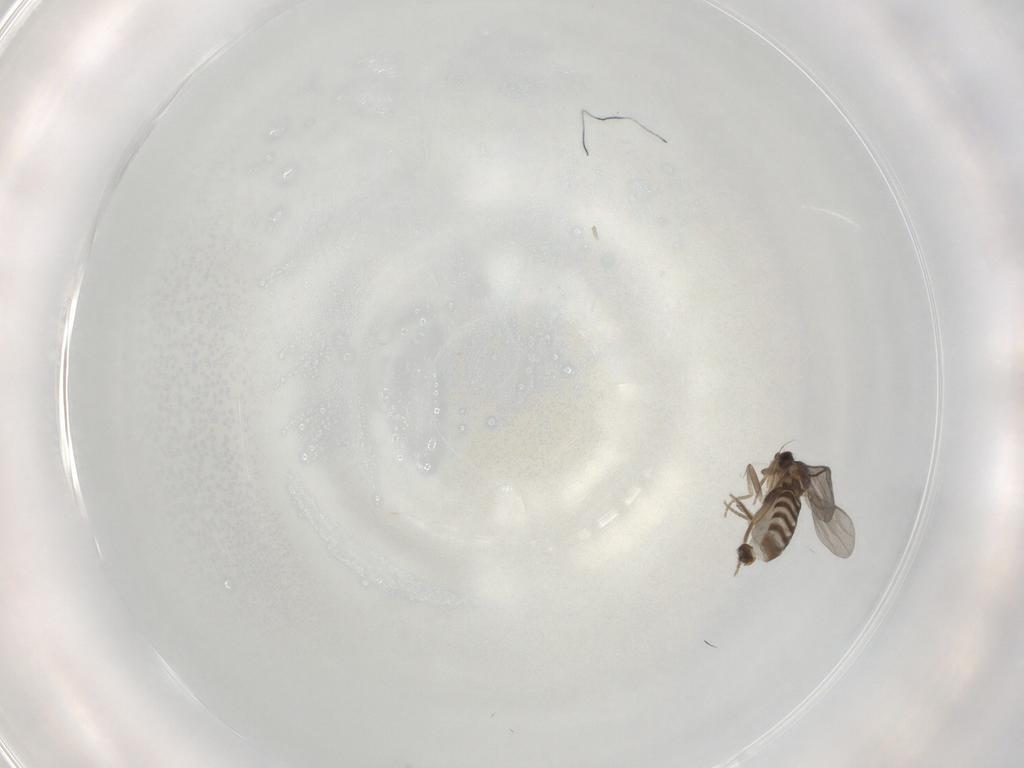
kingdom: Animalia
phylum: Arthropoda
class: Insecta
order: Diptera
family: Cecidomyiidae
